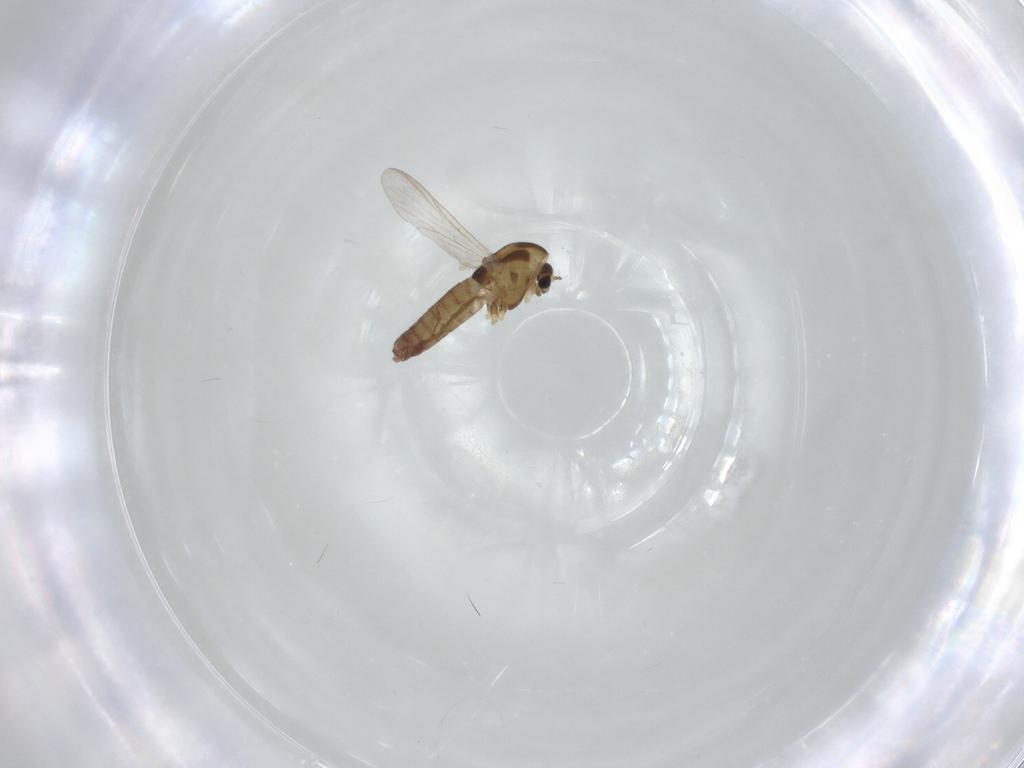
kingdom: Animalia
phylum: Arthropoda
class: Insecta
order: Diptera
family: Chironomidae
